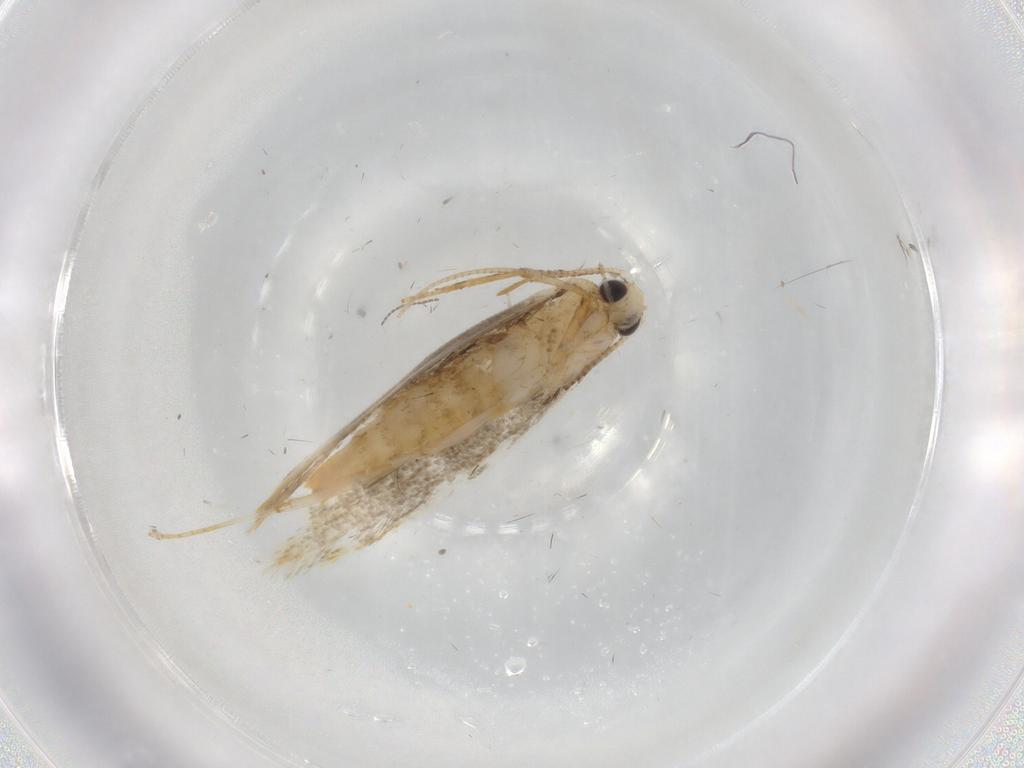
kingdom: Animalia
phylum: Arthropoda
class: Insecta
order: Lepidoptera
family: Tineidae
